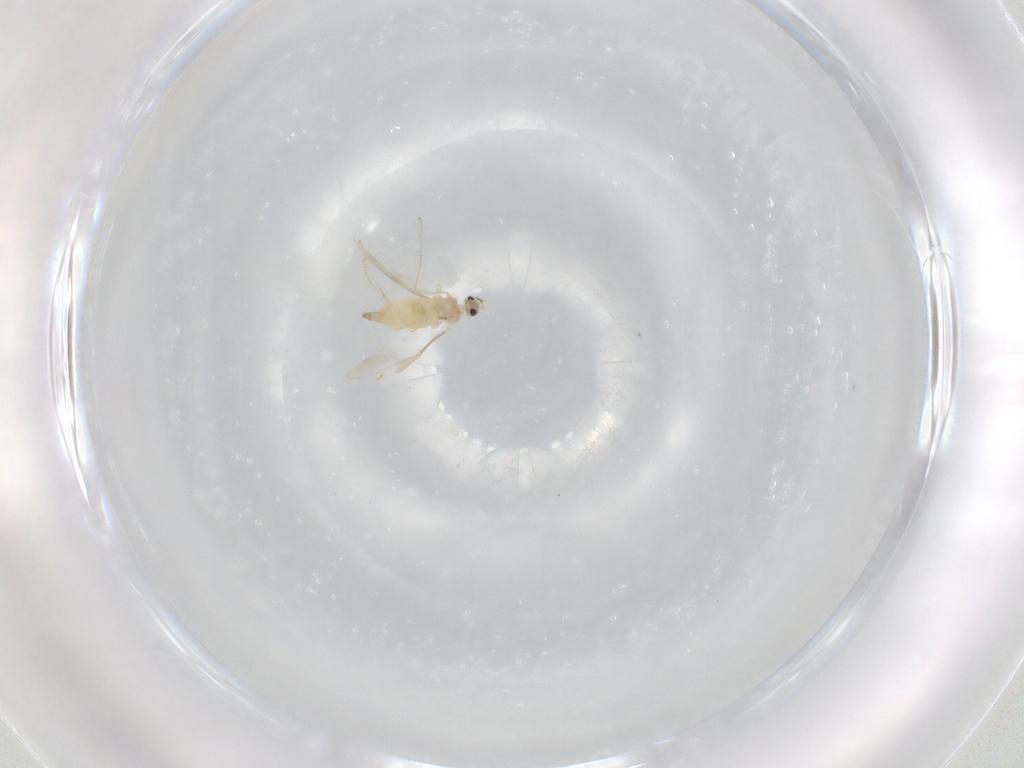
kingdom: Animalia
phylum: Arthropoda
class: Insecta
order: Diptera
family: Cecidomyiidae
